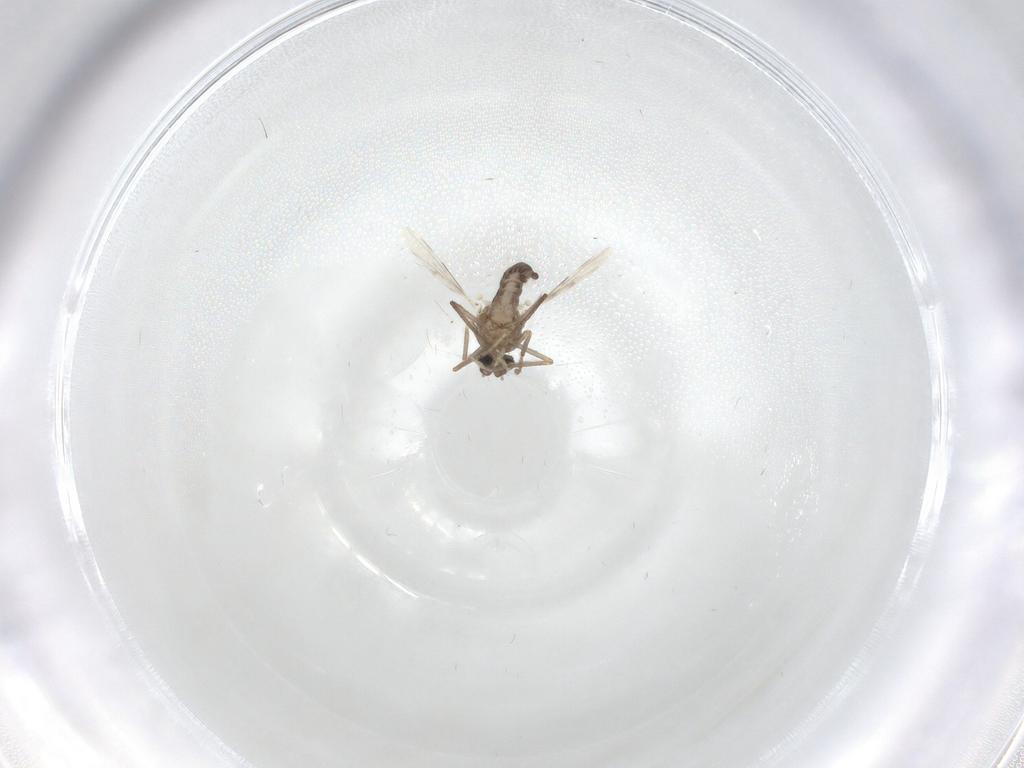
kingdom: Animalia
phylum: Arthropoda
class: Insecta
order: Diptera
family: Ceratopogonidae
